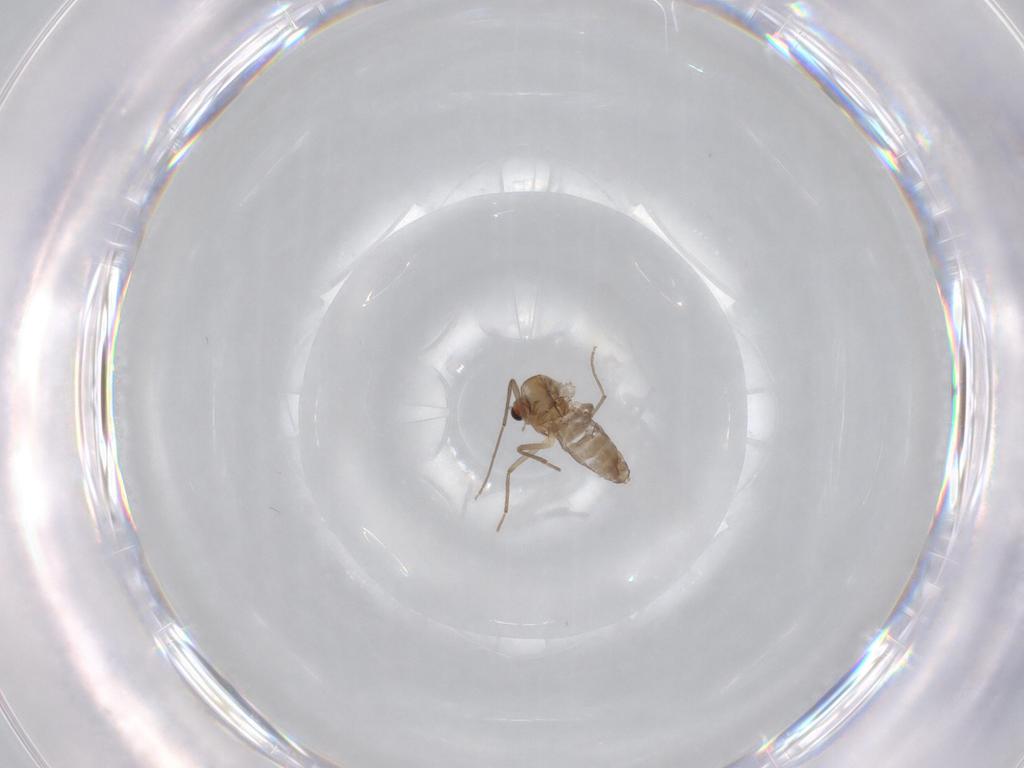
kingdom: Animalia
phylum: Arthropoda
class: Insecta
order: Diptera
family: Chironomidae
